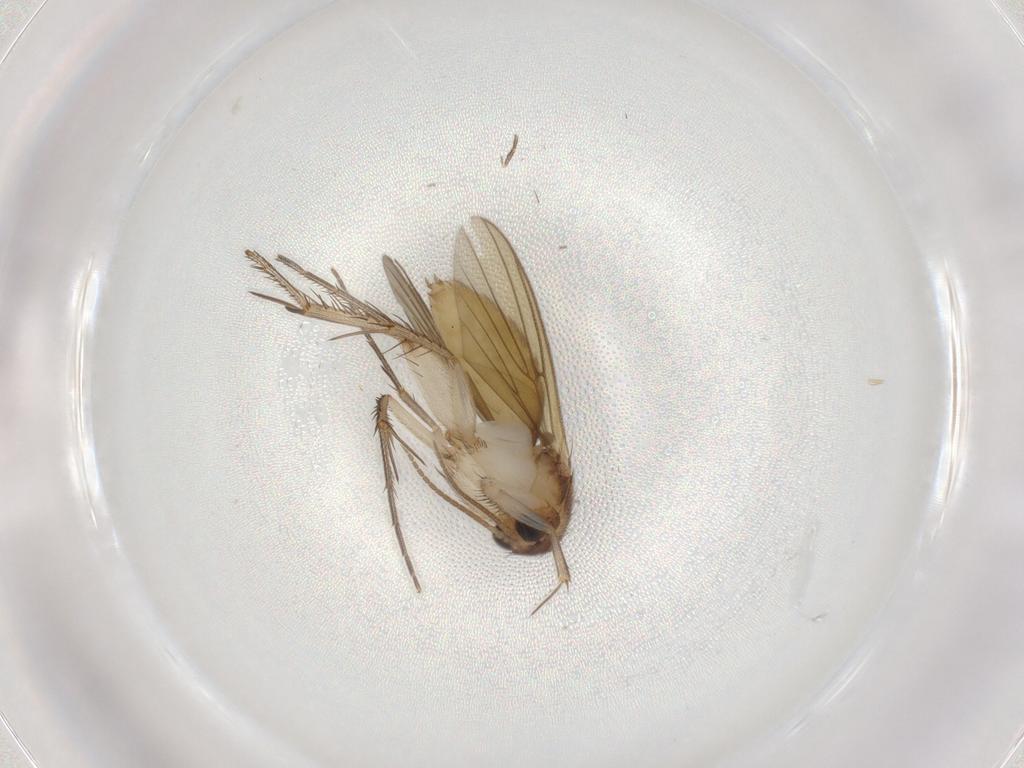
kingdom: Animalia
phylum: Arthropoda
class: Insecta
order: Diptera
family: Mycetophilidae
